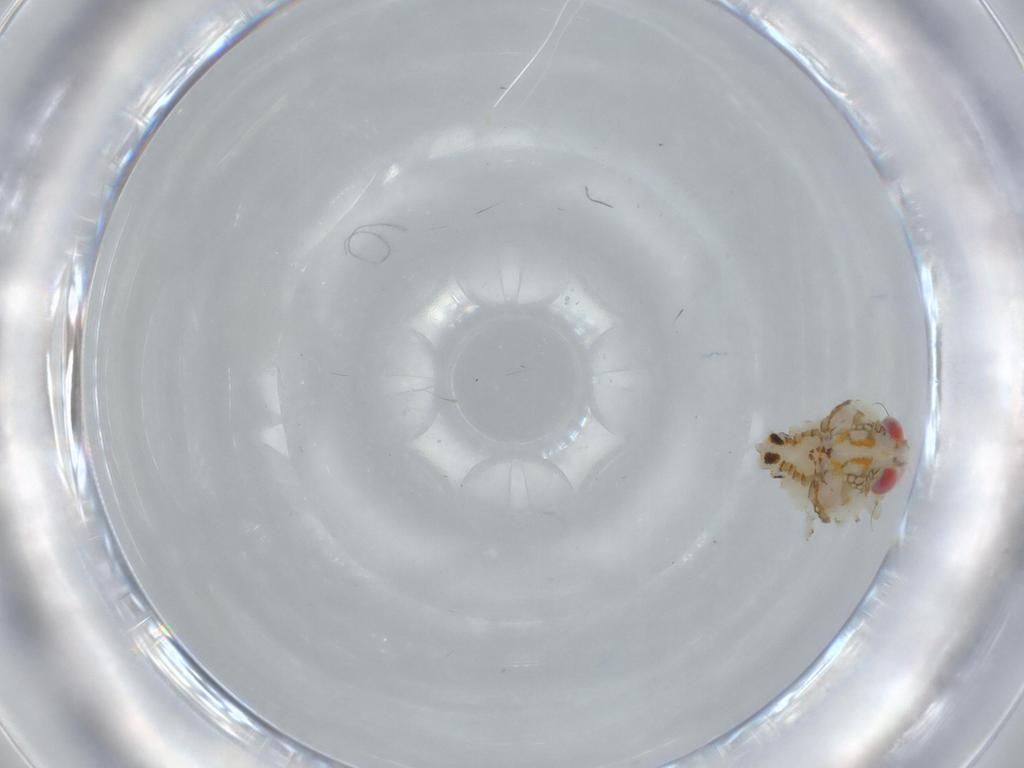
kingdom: Animalia
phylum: Arthropoda
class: Insecta
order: Hemiptera
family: Nogodinidae
